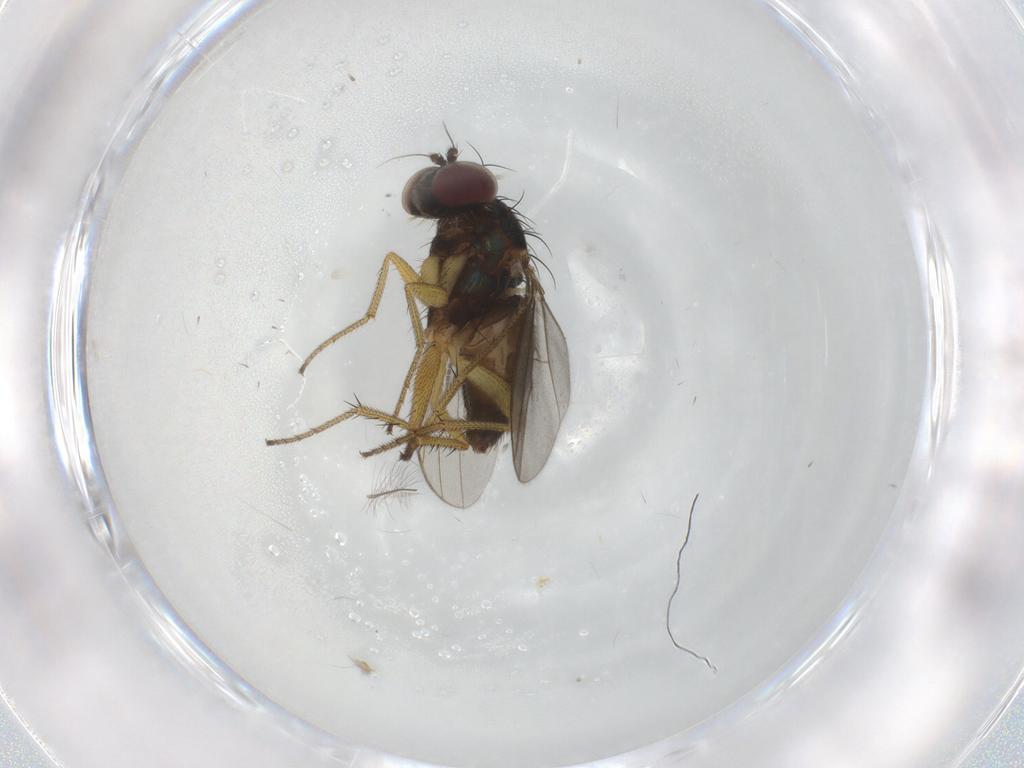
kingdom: Animalia
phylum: Arthropoda
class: Insecta
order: Diptera
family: Sciaridae
